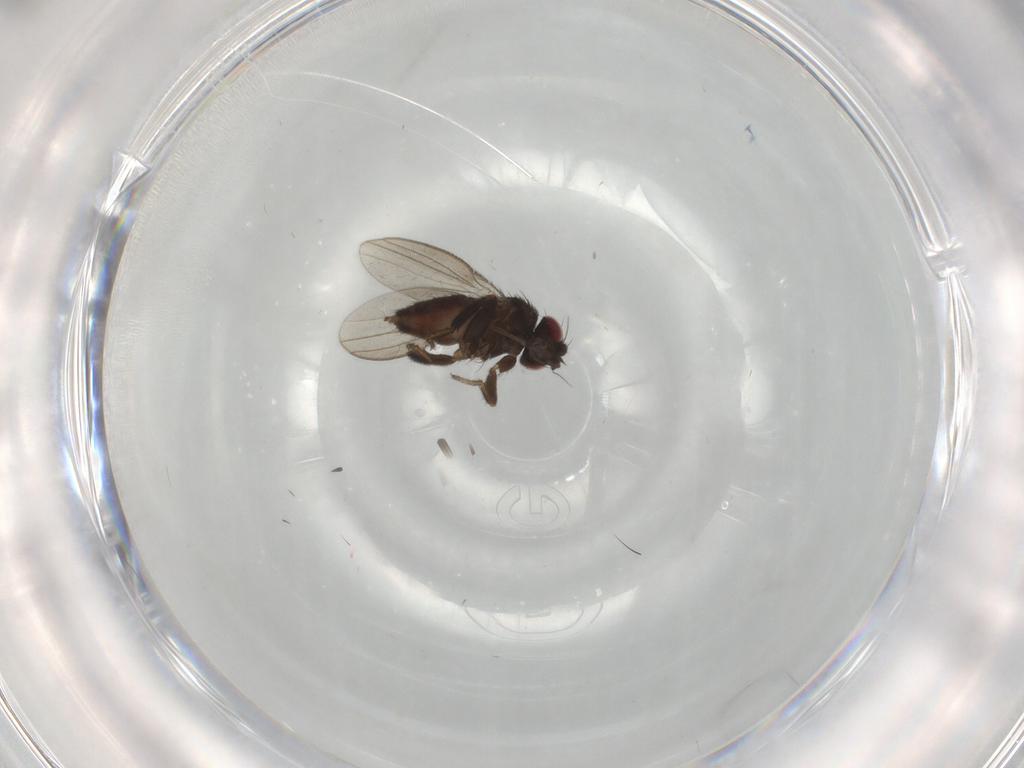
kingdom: Animalia
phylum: Arthropoda
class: Insecta
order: Diptera
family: Milichiidae
